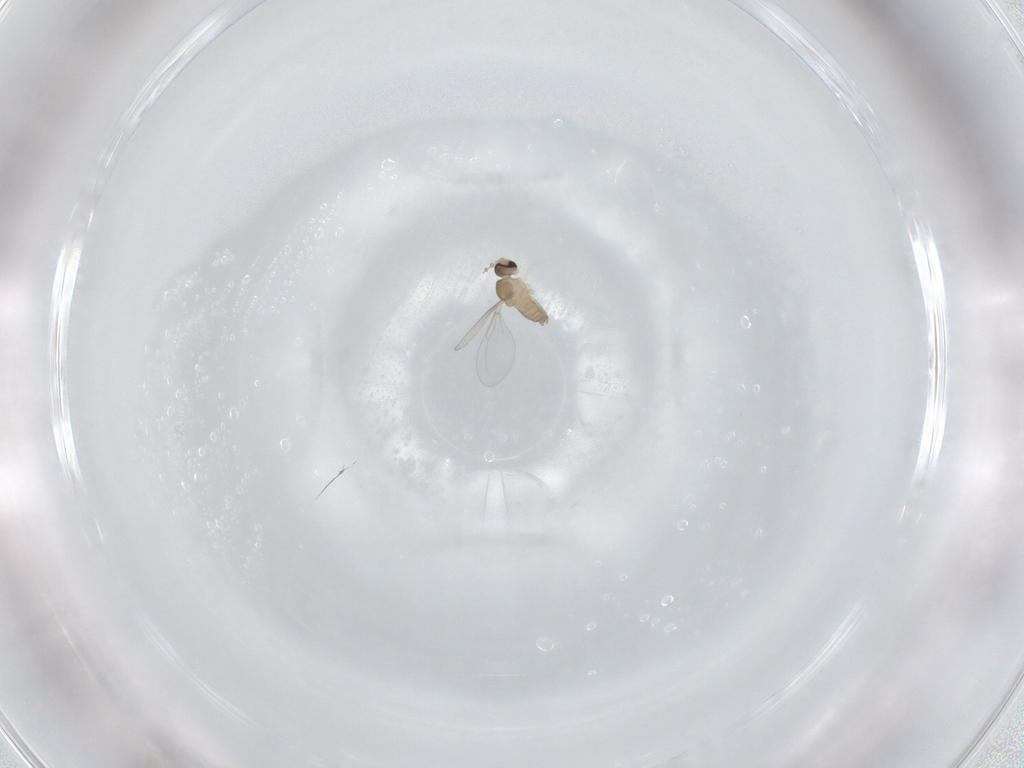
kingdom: Animalia
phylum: Arthropoda
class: Insecta
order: Diptera
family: Cecidomyiidae
